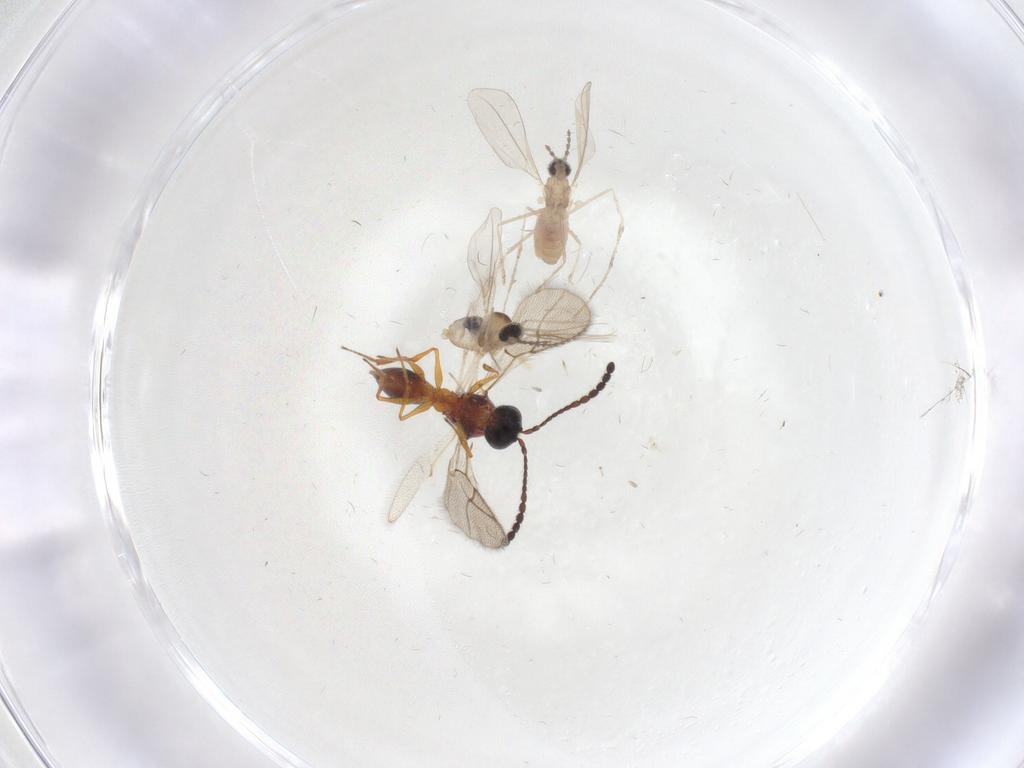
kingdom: Animalia
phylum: Arthropoda
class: Insecta
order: Diptera
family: Cecidomyiidae
